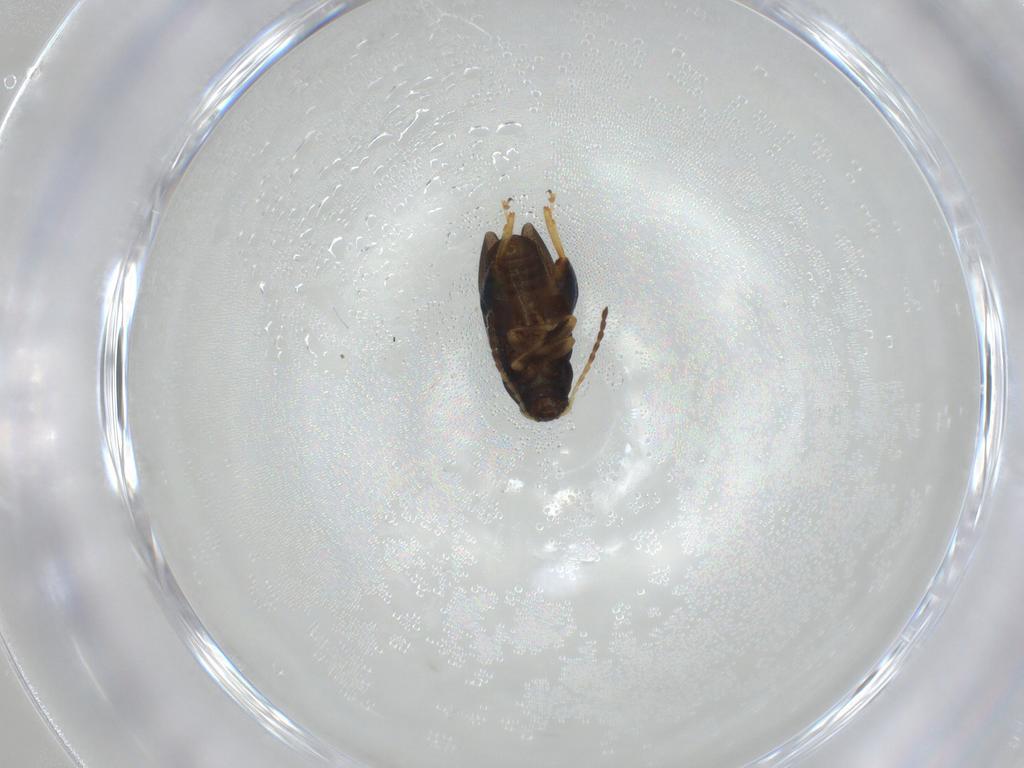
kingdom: Animalia
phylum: Arthropoda
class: Insecta
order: Coleoptera
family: Chrysomelidae
